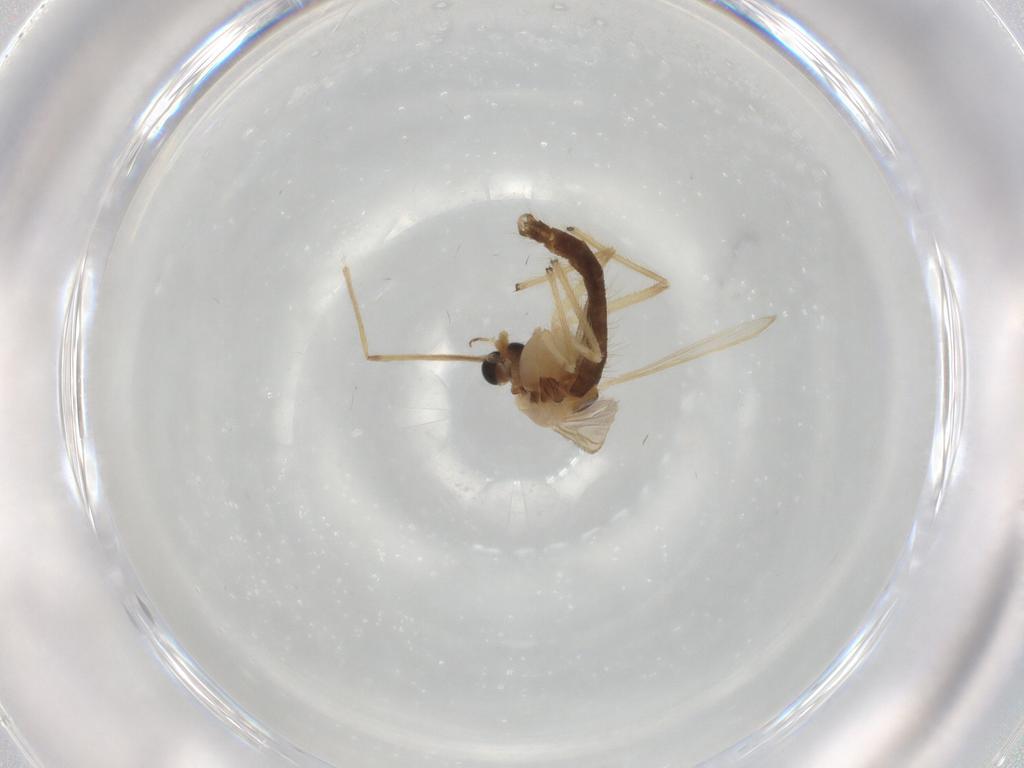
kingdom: Animalia
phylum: Arthropoda
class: Insecta
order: Diptera
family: Chironomidae
